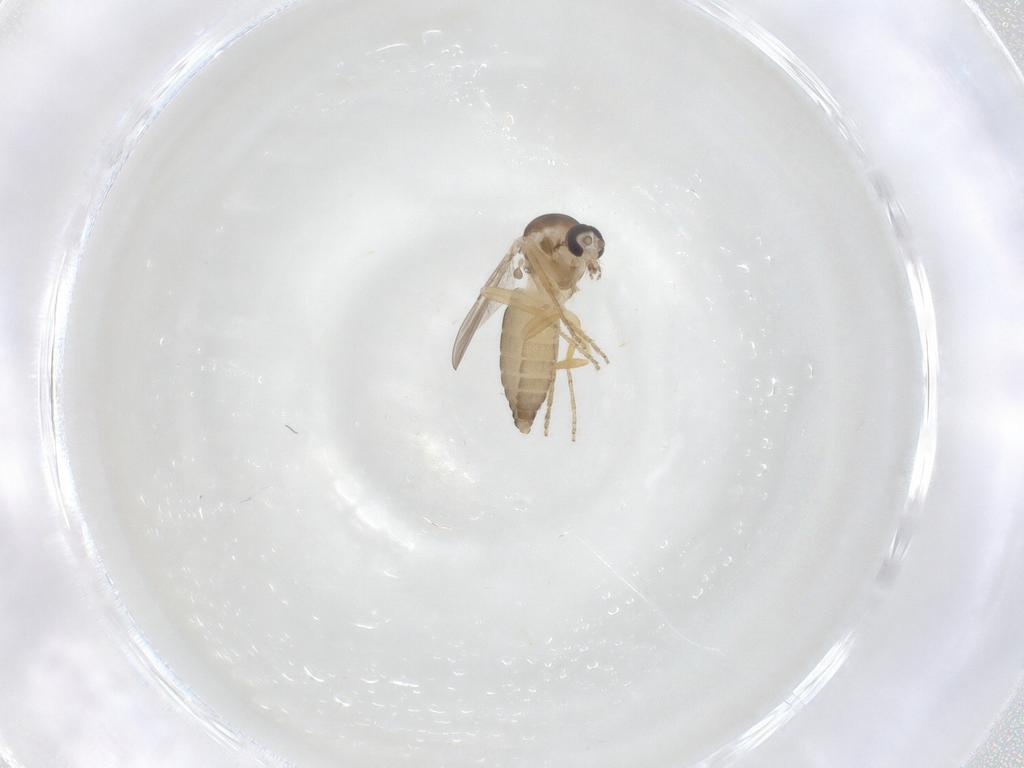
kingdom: Animalia
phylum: Arthropoda
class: Insecta
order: Diptera
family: Ceratopogonidae
